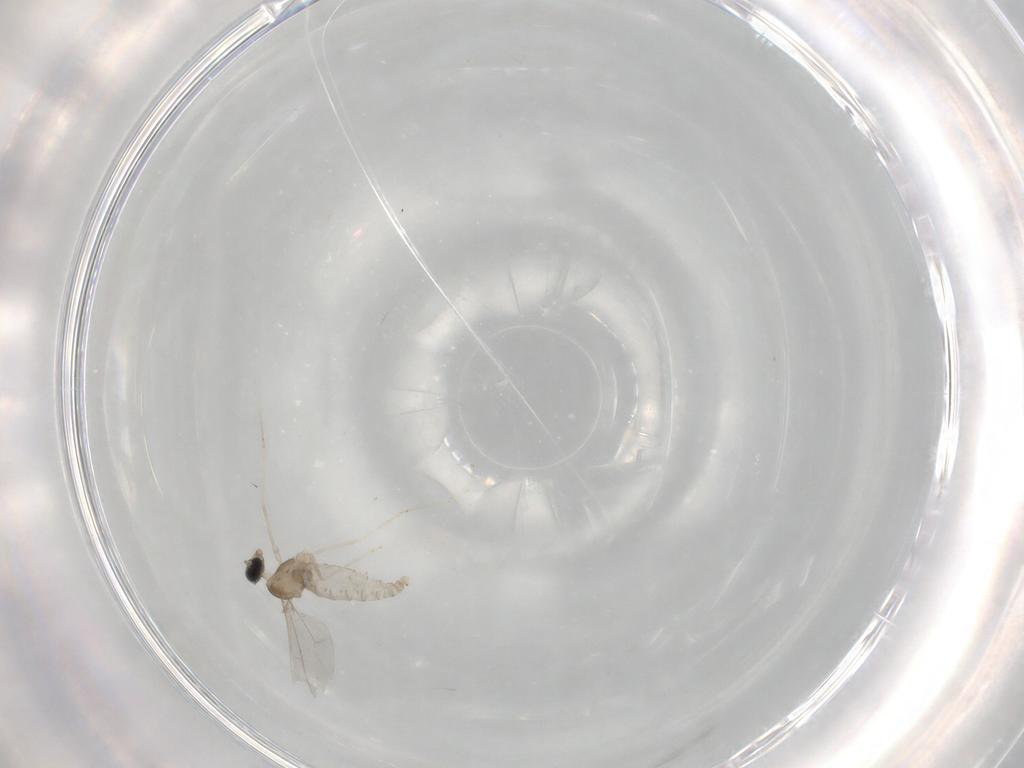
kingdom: Animalia
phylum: Arthropoda
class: Insecta
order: Diptera
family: Cecidomyiidae
